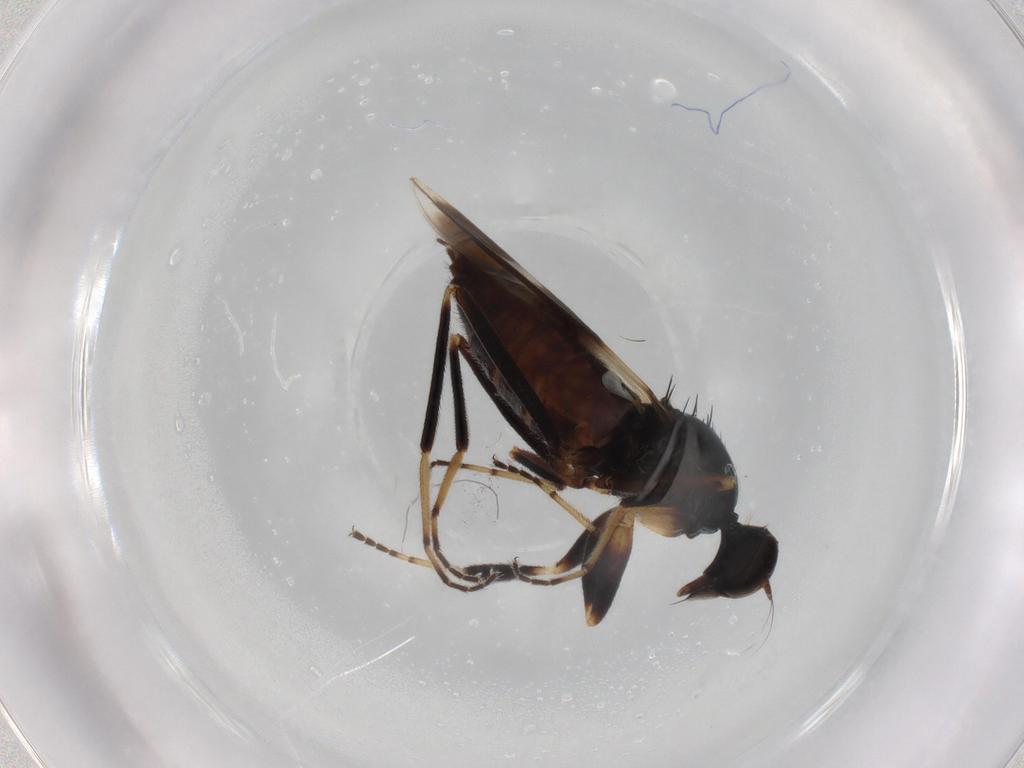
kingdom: Animalia
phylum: Arthropoda
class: Insecta
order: Diptera
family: Hybotidae
